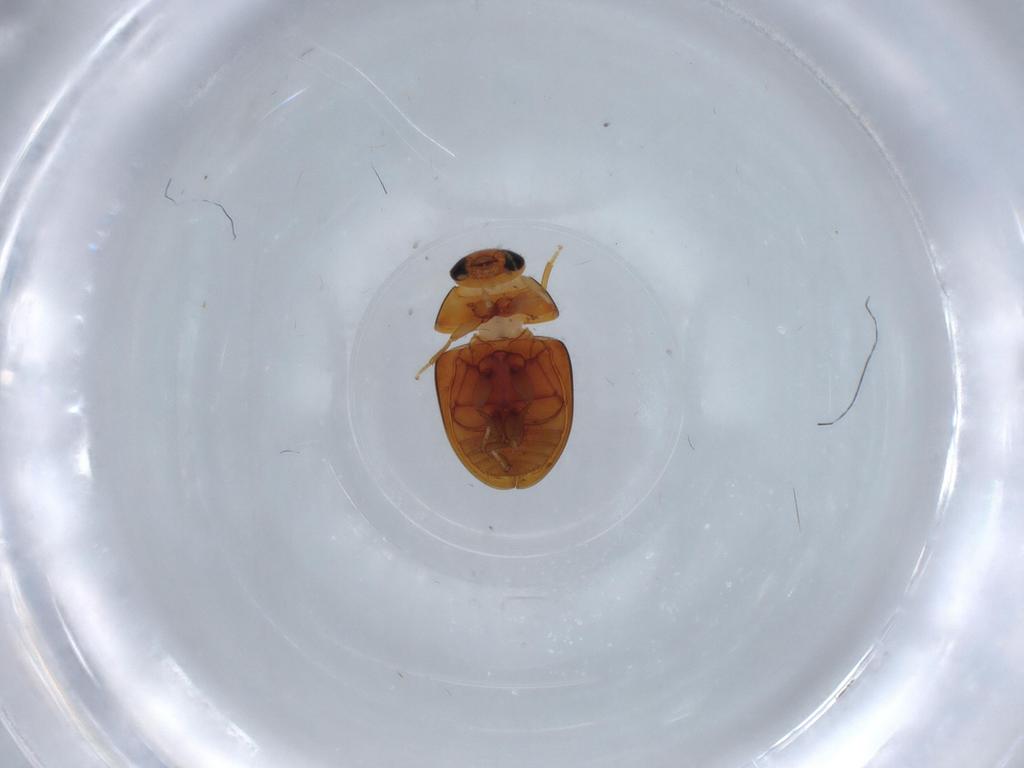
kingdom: Animalia
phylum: Arthropoda
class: Insecta
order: Coleoptera
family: Phalacridae
